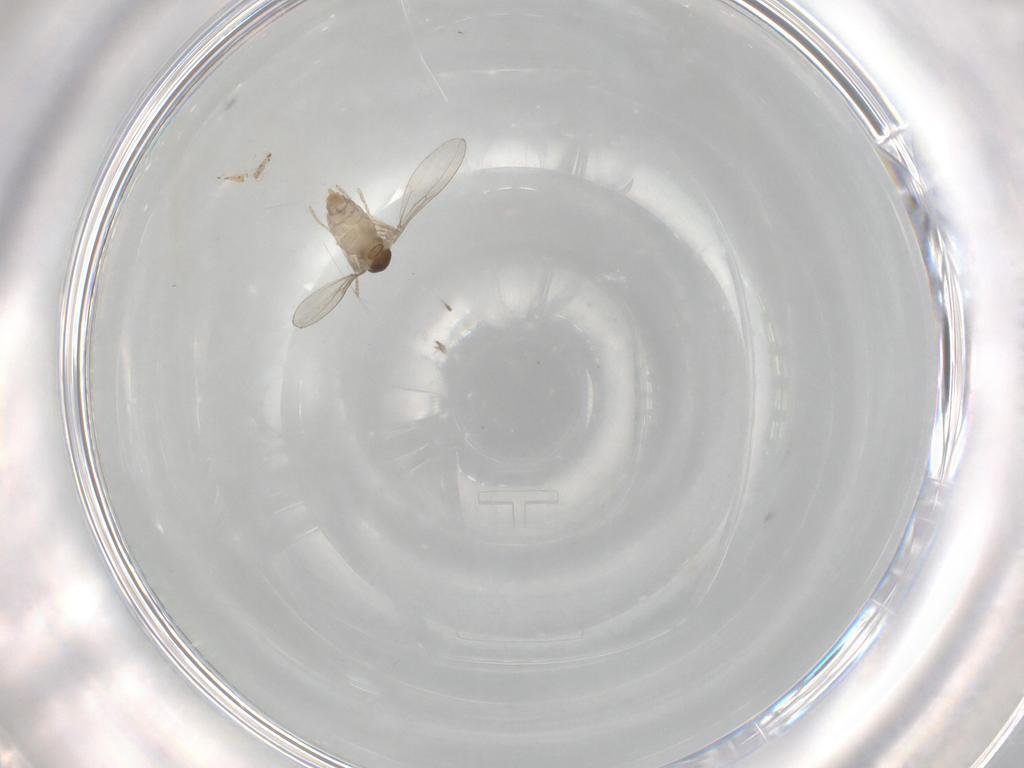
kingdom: Animalia
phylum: Arthropoda
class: Insecta
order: Diptera
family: Cecidomyiidae
